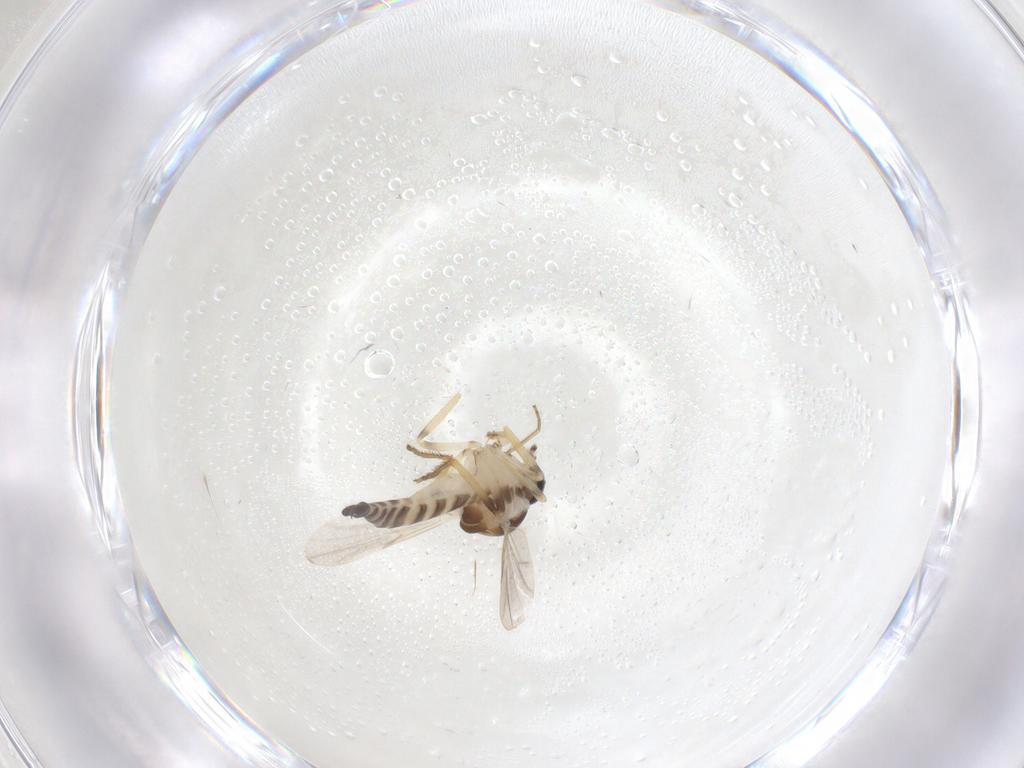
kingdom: Animalia
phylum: Arthropoda
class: Insecta
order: Diptera
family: Ceratopogonidae
